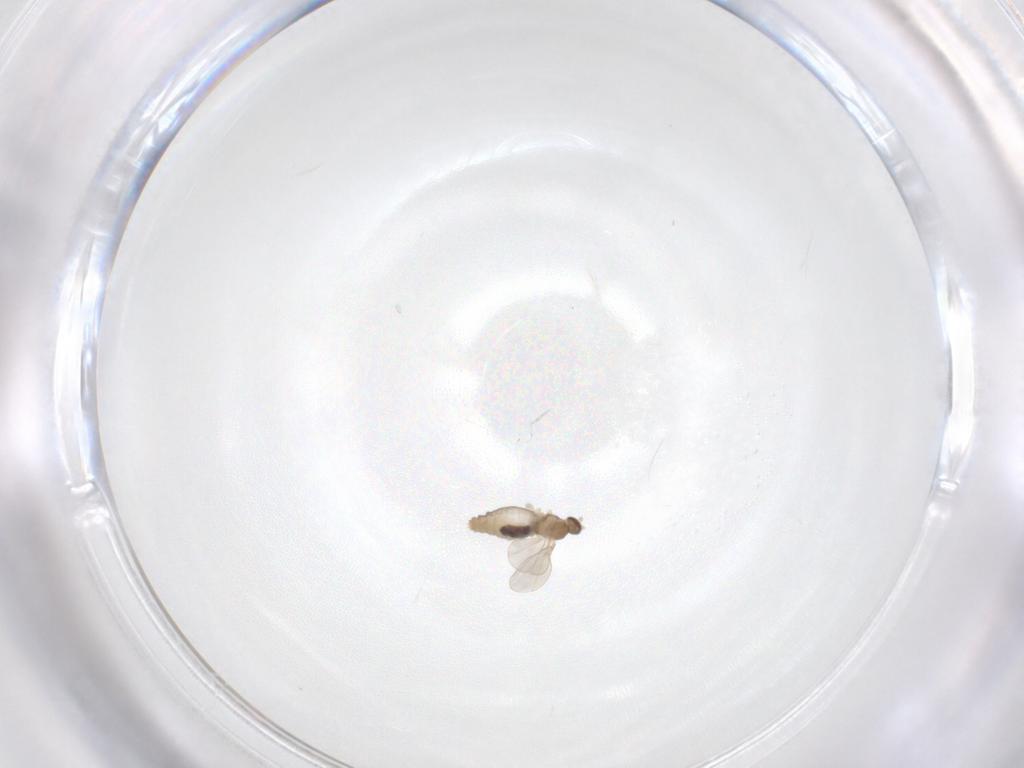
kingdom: Animalia
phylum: Arthropoda
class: Insecta
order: Diptera
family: Cecidomyiidae
